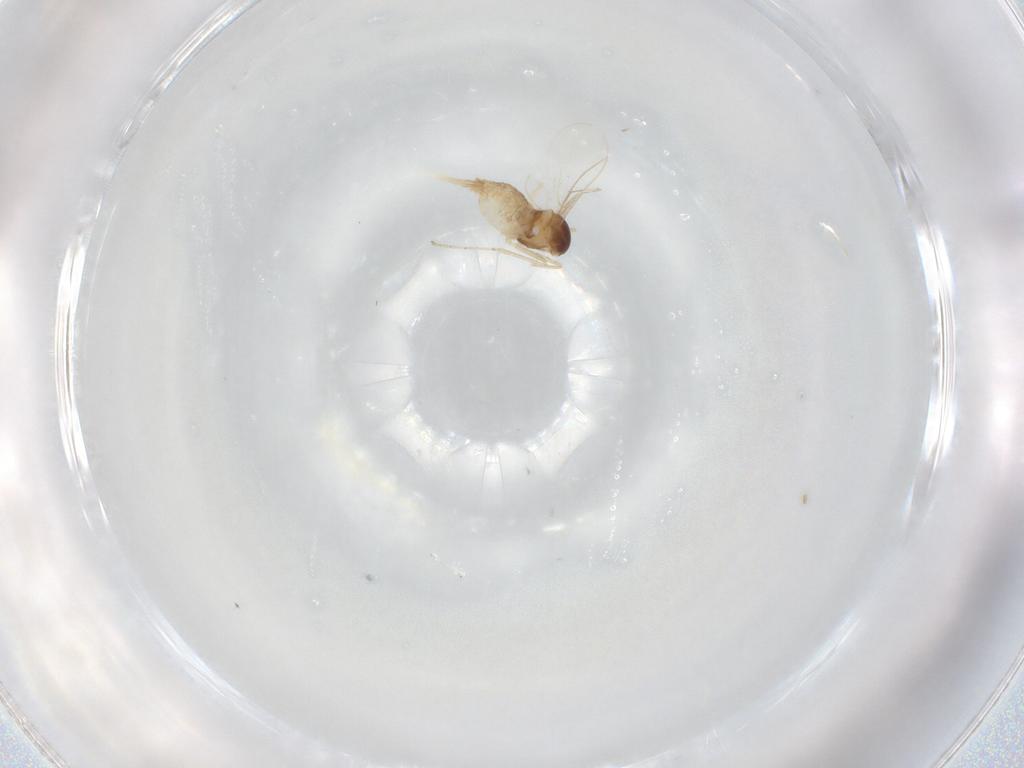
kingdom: Animalia
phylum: Arthropoda
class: Insecta
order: Diptera
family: Cecidomyiidae
